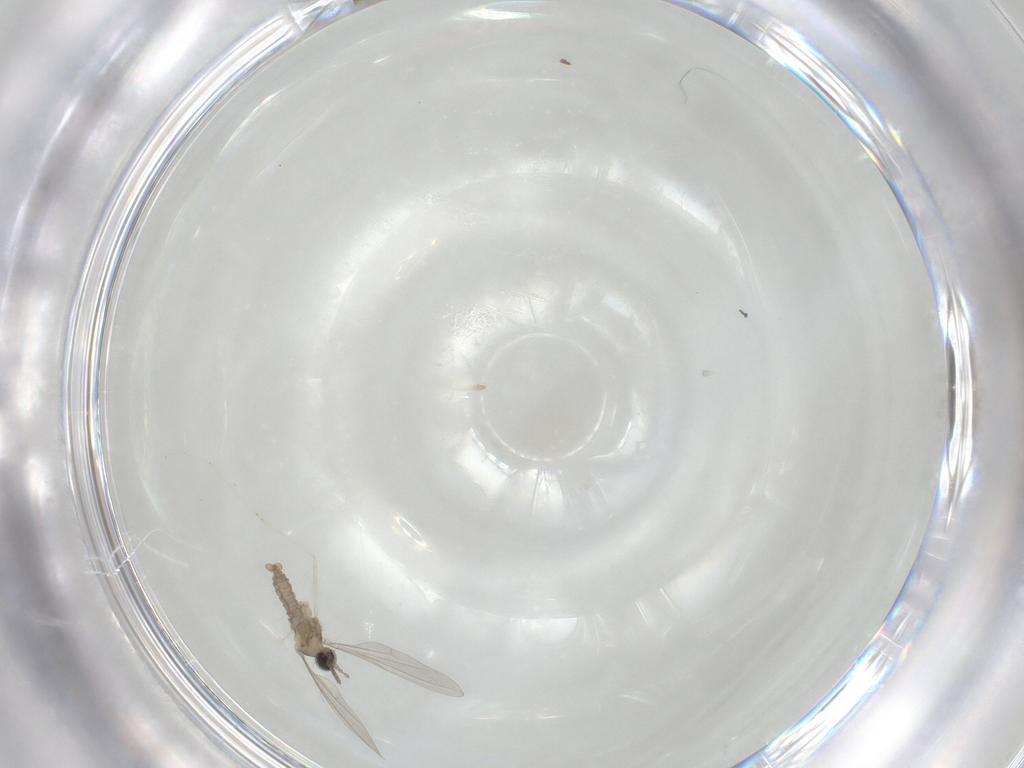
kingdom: Animalia
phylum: Arthropoda
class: Insecta
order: Diptera
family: Cecidomyiidae
